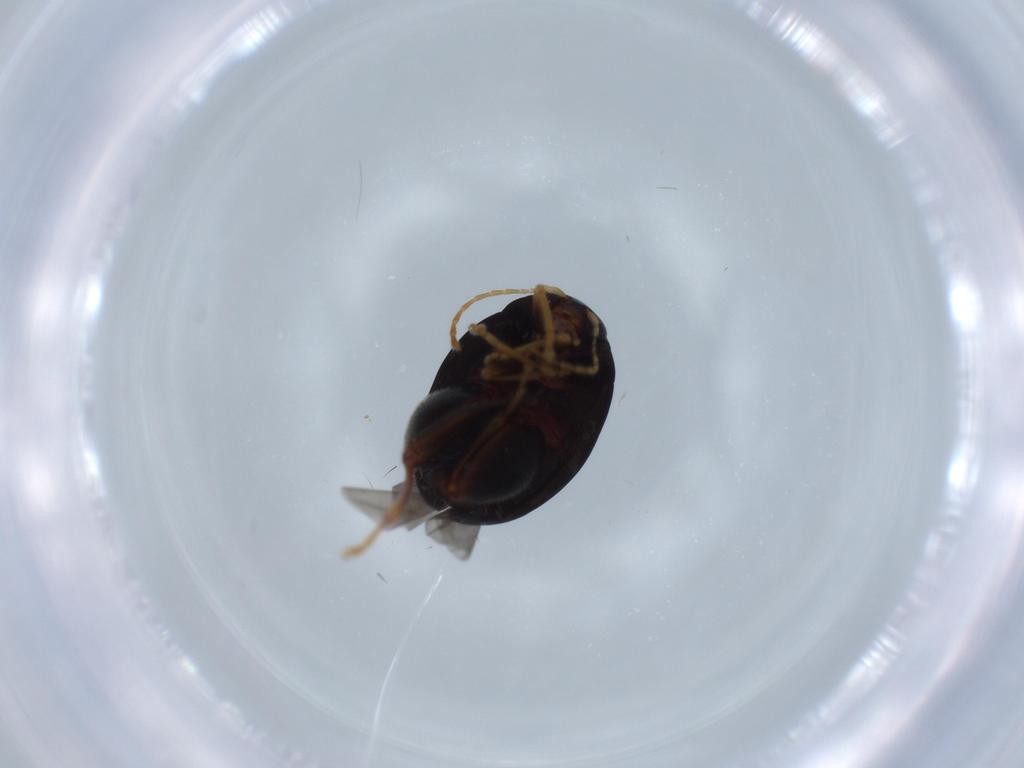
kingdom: Animalia
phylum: Arthropoda
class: Insecta
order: Coleoptera
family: Chrysomelidae
